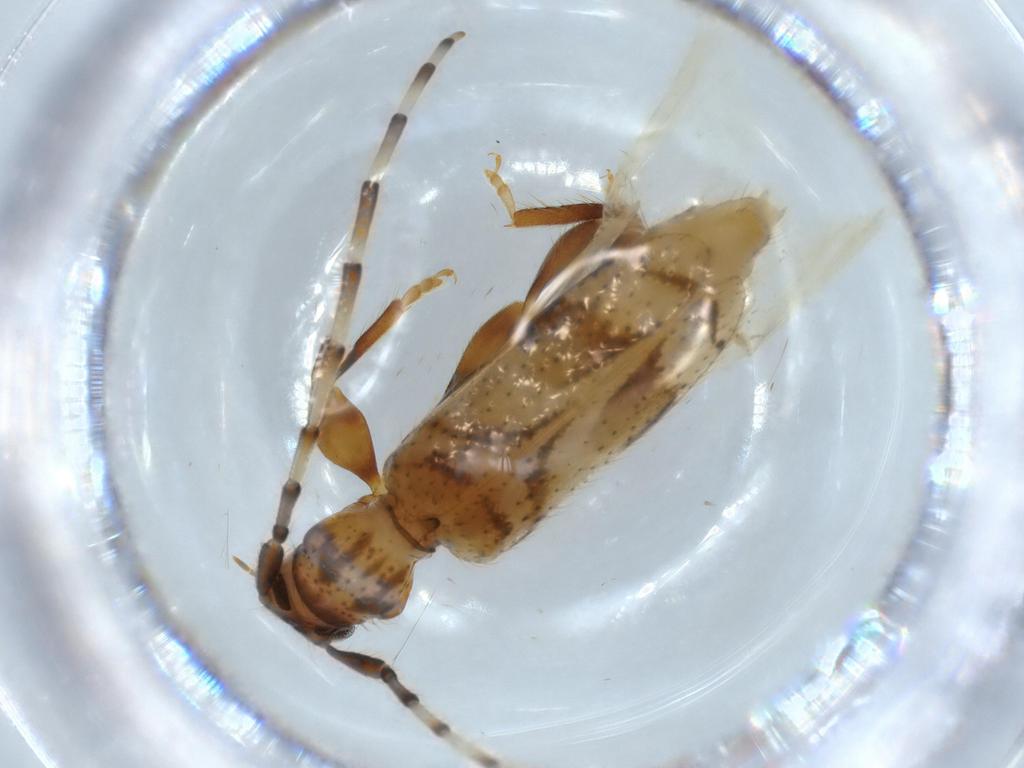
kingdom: Animalia
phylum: Arthropoda
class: Insecta
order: Coleoptera
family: Cerambycidae
